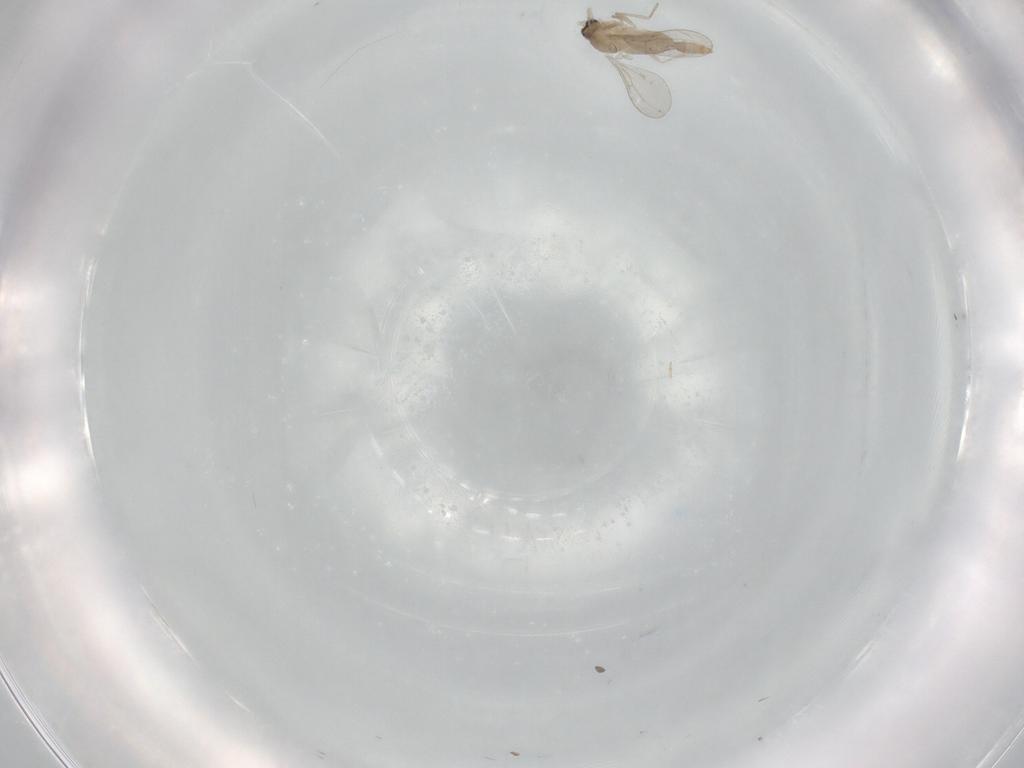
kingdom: Animalia
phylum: Arthropoda
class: Insecta
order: Diptera
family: Cecidomyiidae
